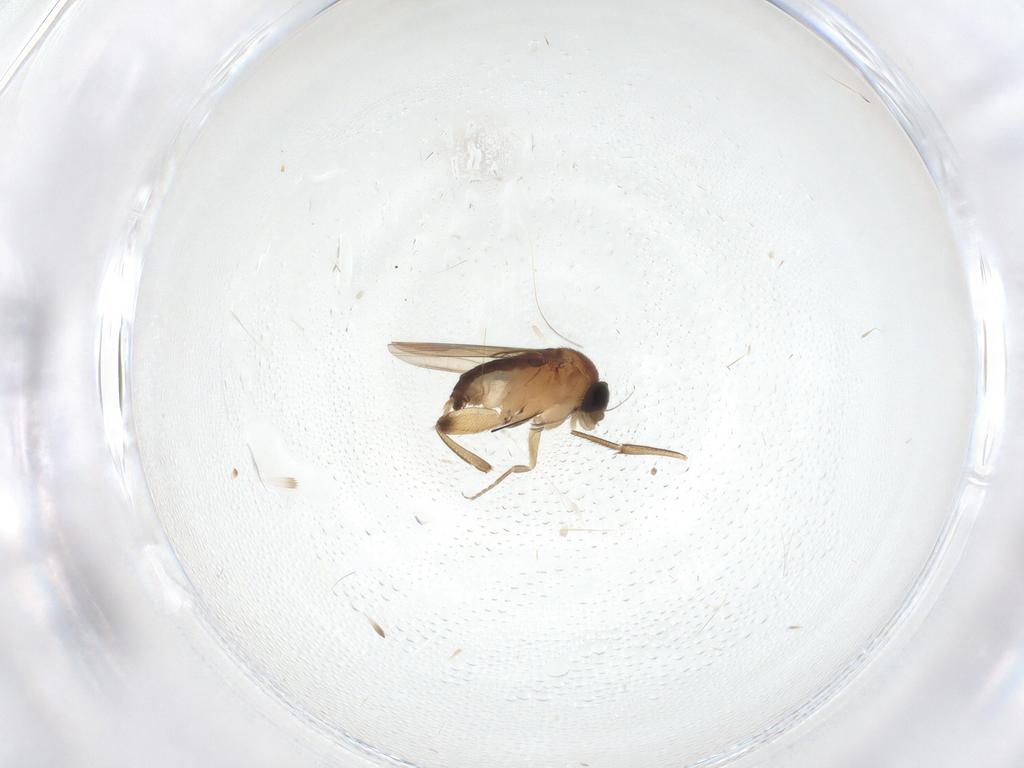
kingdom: Animalia
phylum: Arthropoda
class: Insecta
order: Diptera
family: Phoridae
